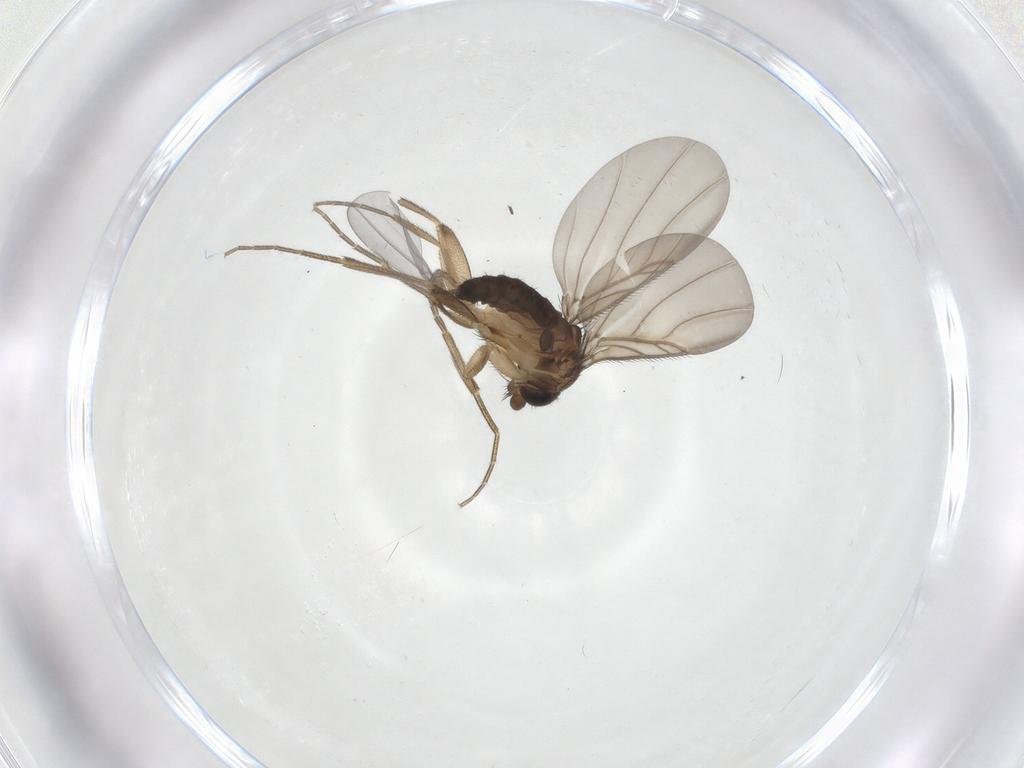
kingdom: Animalia
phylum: Arthropoda
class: Insecta
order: Diptera
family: Phoridae
